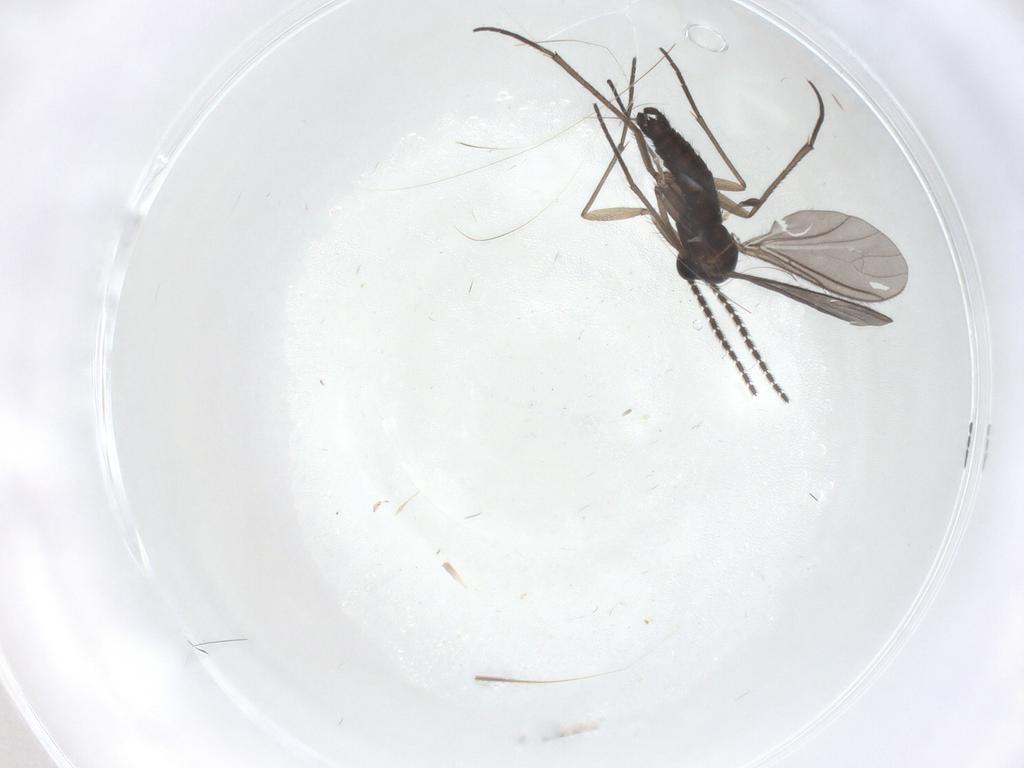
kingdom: Animalia
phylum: Arthropoda
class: Insecta
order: Diptera
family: Sciaridae
